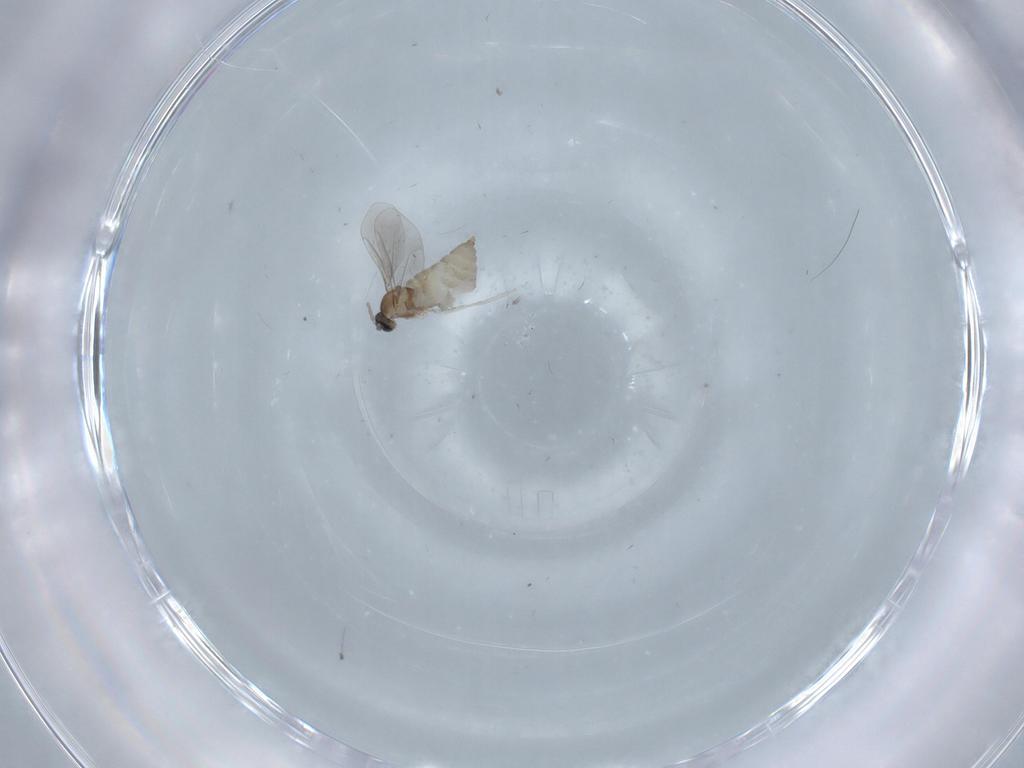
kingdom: Animalia
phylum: Arthropoda
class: Insecta
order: Diptera
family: Cecidomyiidae
